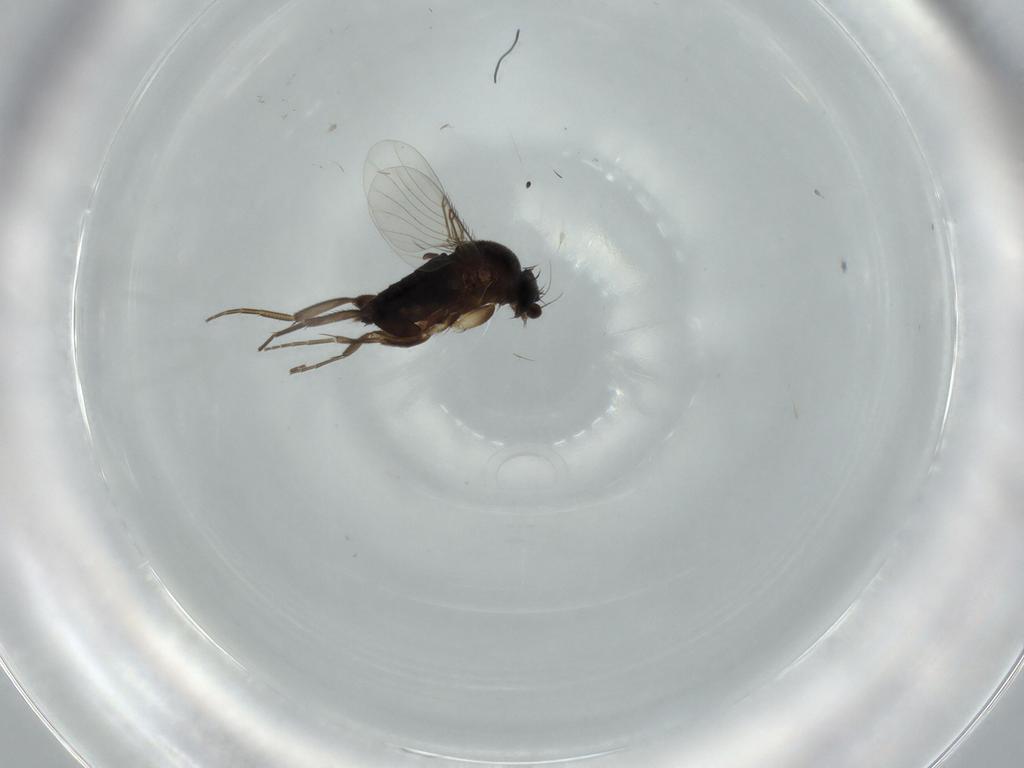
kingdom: Animalia
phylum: Arthropoda
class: Insecta
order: Diptera
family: Phoridae
